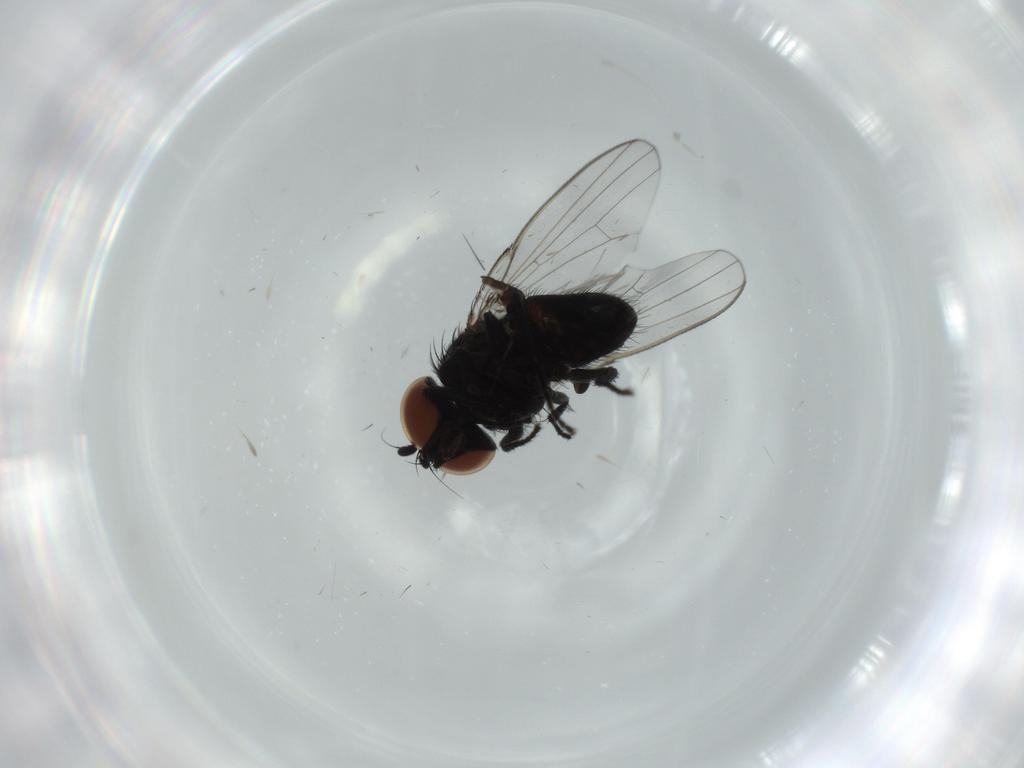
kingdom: Animalia
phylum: Arthropoda
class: Insecta
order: Diptera
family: Milichiidae
